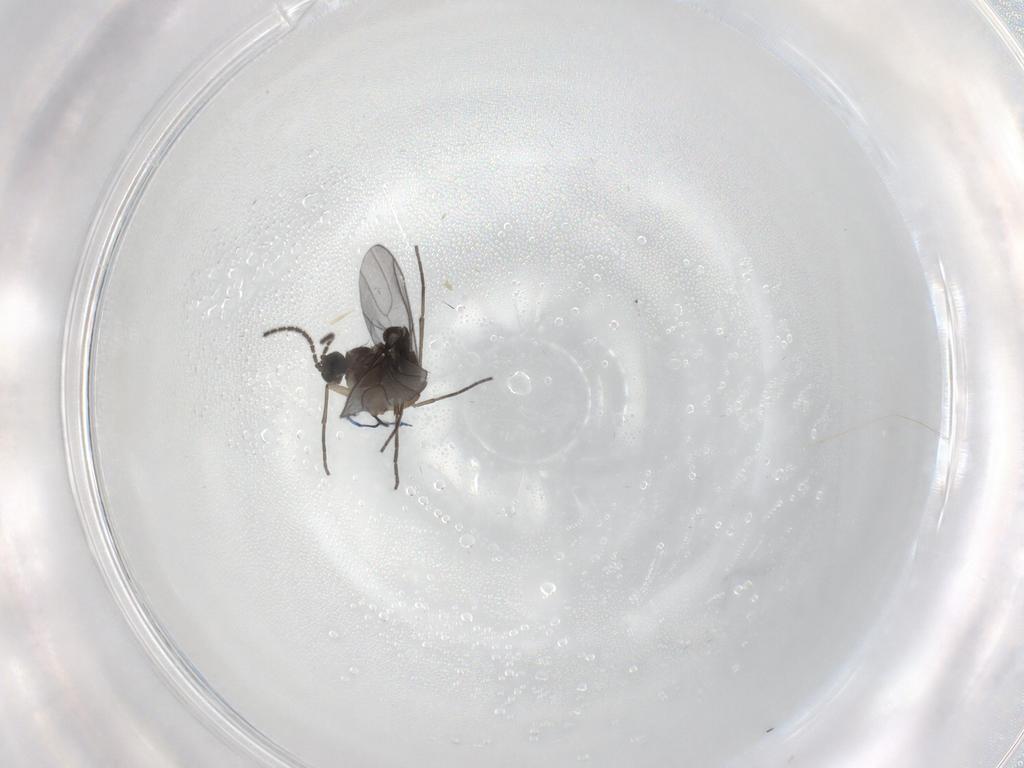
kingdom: Animalia
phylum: Arthropoda
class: Insecta
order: Diptera
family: Sciaridae
